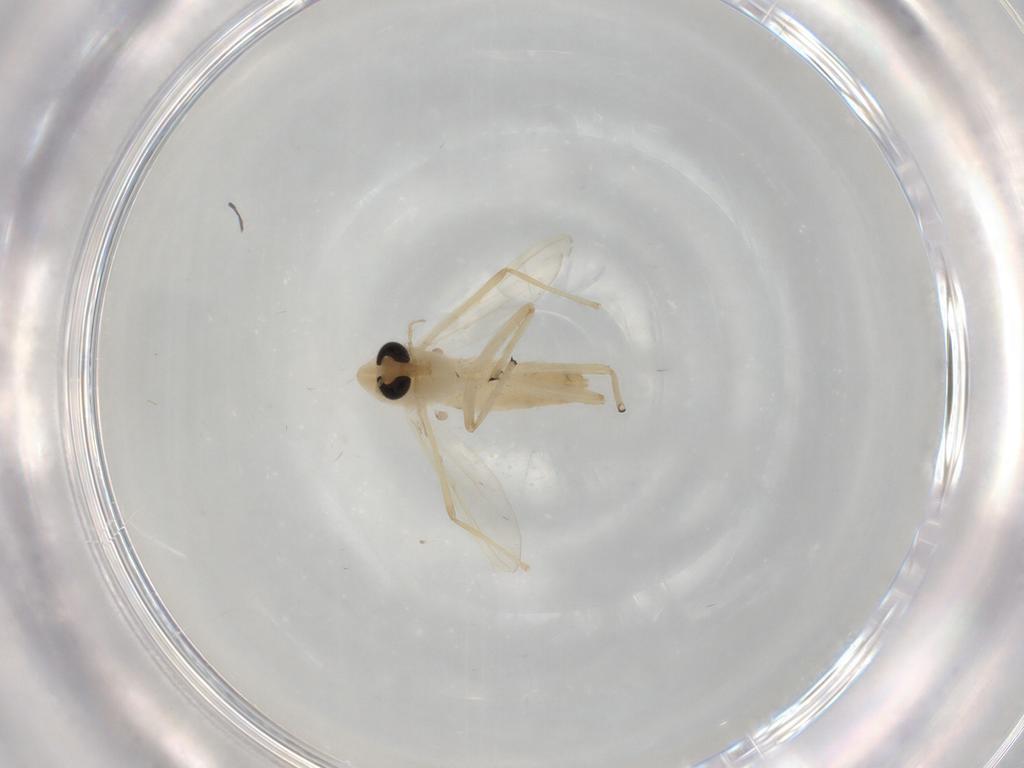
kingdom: Animalia
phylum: Arthropoda
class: Insecta
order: Diptera
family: Chironomidae
